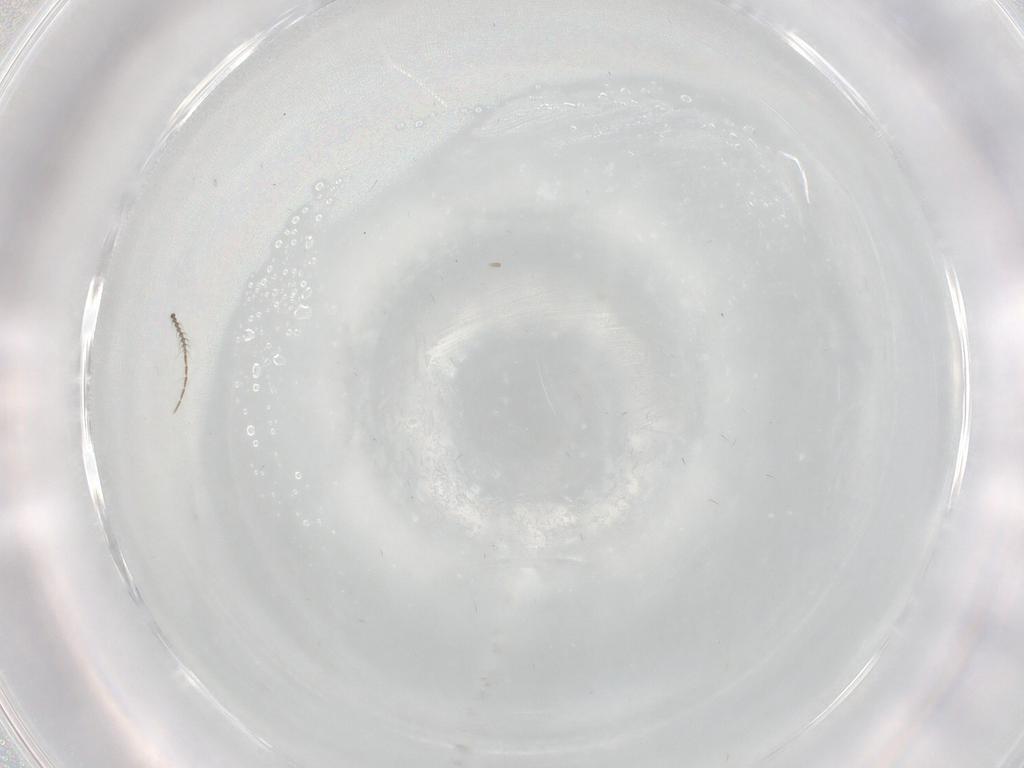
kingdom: Animalia
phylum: Arthropoda
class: Insecta
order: Diptera
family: Ceratopogonidae
